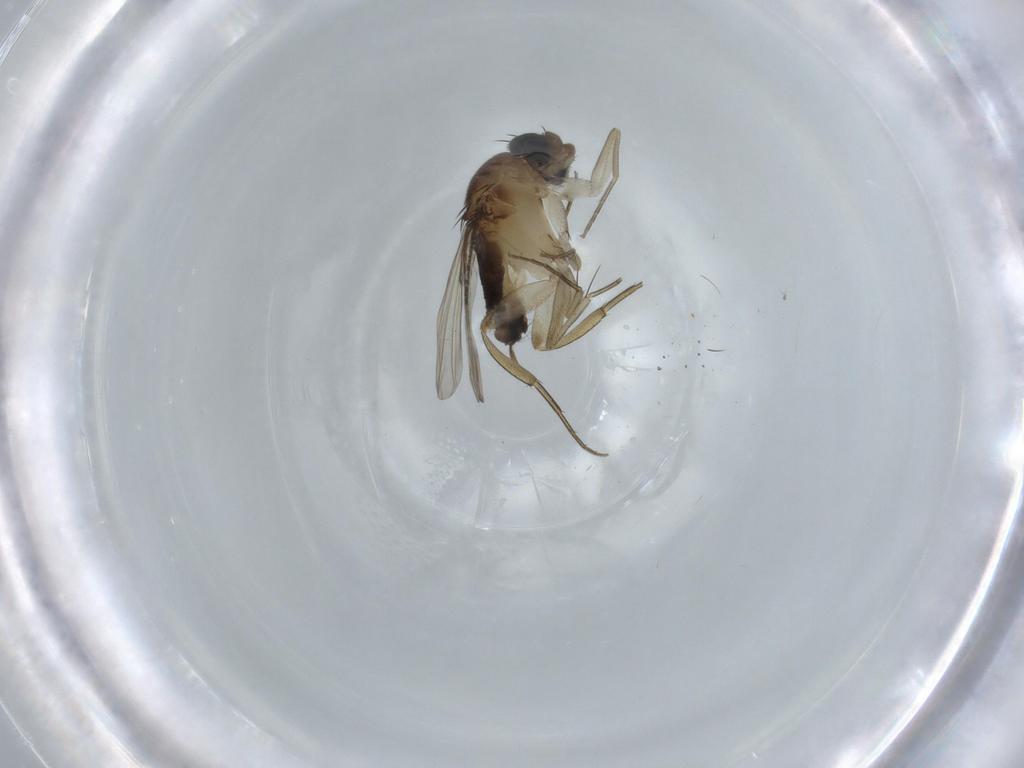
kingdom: Animalia
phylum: Arthropoda
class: Insecta
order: Diptera
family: Phoridae
